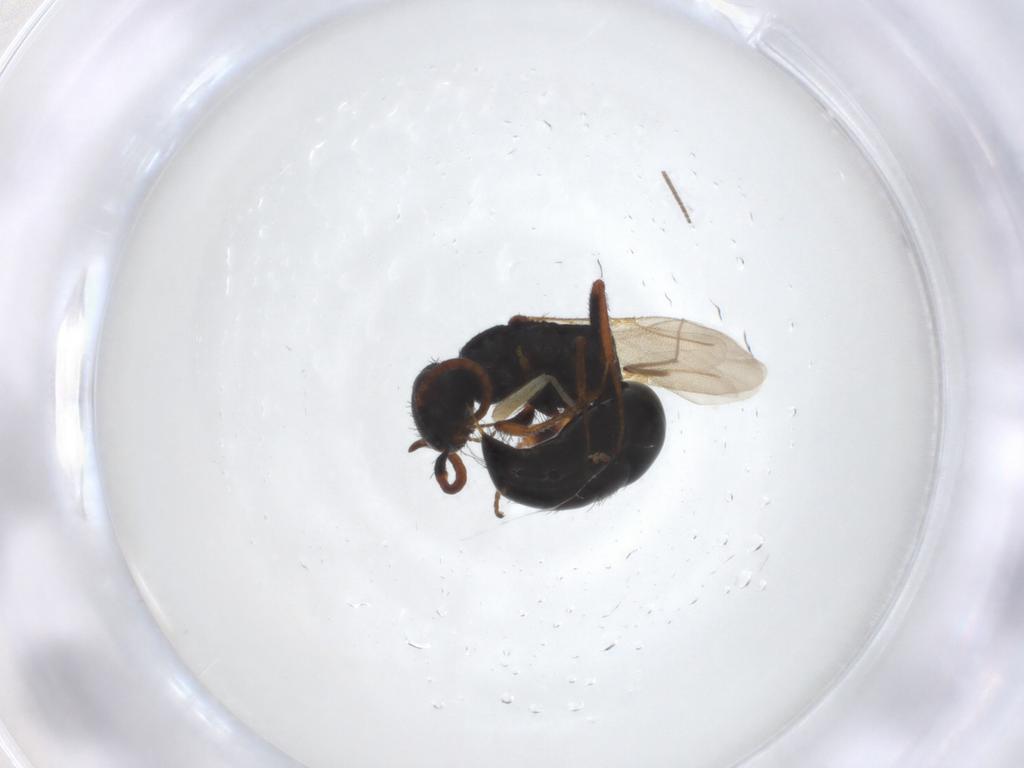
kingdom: Animalia
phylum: Arthropoda
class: Insecta
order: Hymenoptera
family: Bethylidae
